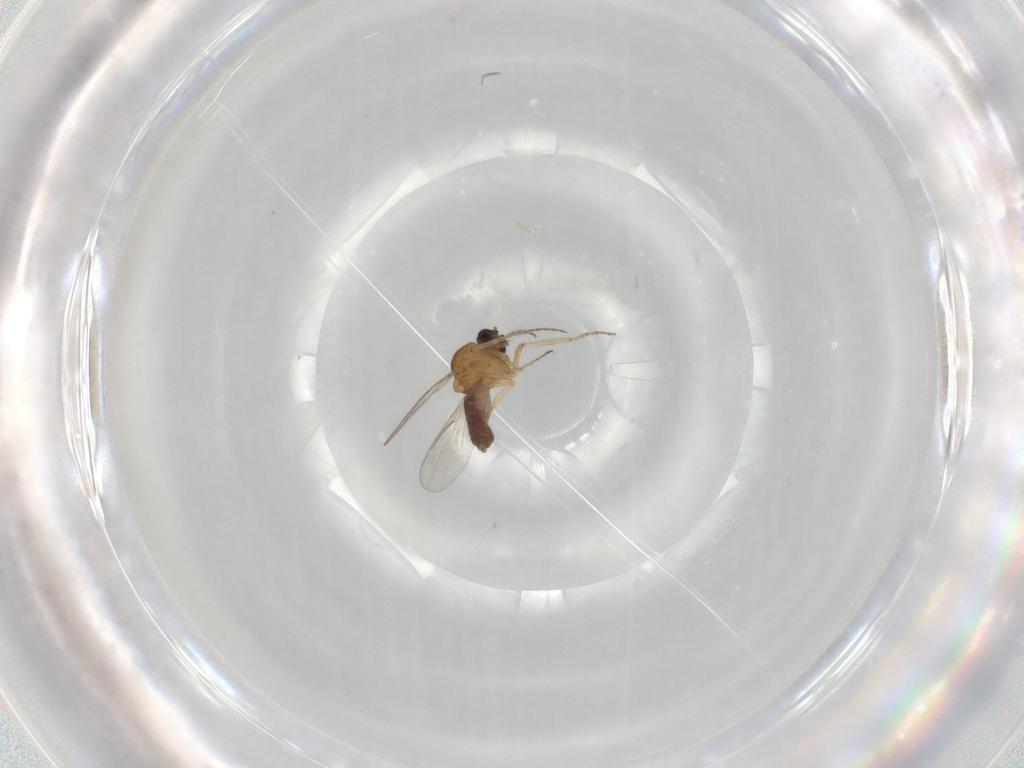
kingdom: Animalia
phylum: Arthropoda
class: Insecta
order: Diptera
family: Ceratopogonidae
